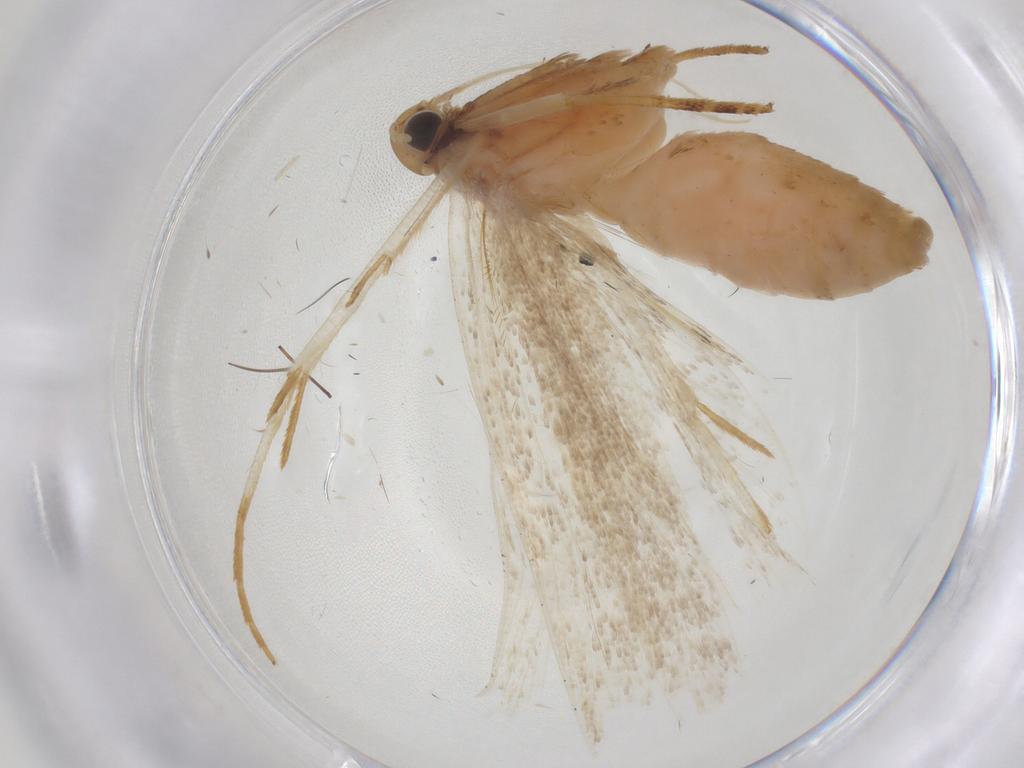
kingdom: Animalia
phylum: Arthropoda
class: Insecta
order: Lepidoptera
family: Gelechiidae
